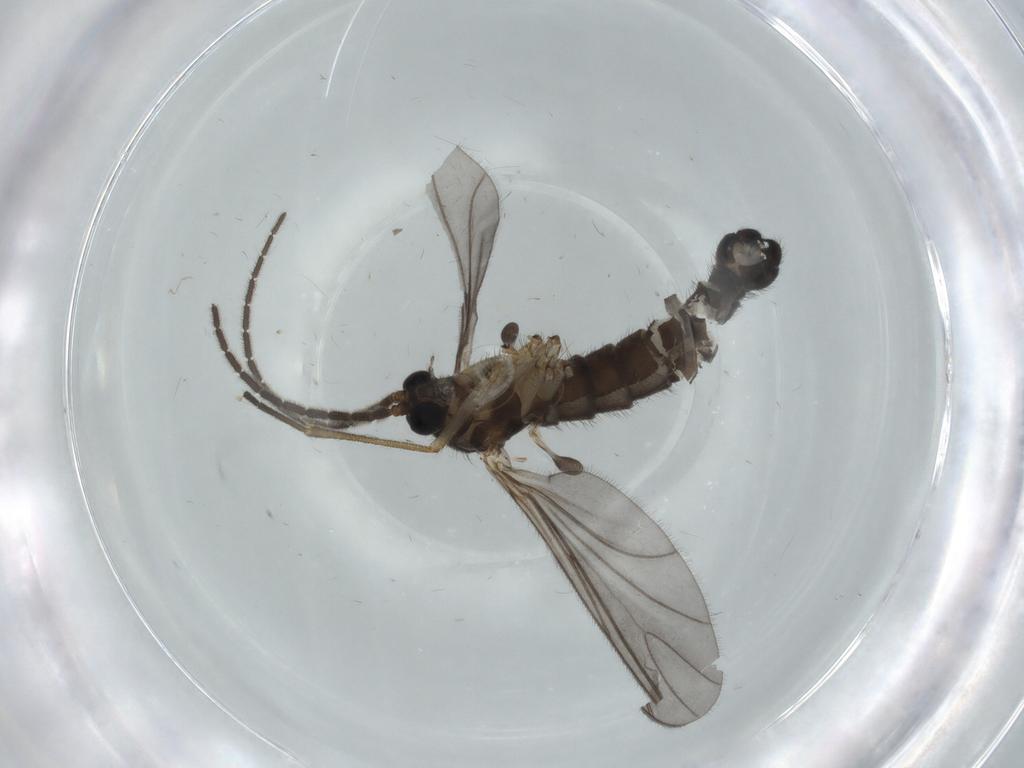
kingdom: Animalia
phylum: Arthropoda
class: Insecta
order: Diptera
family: Sciaridae
